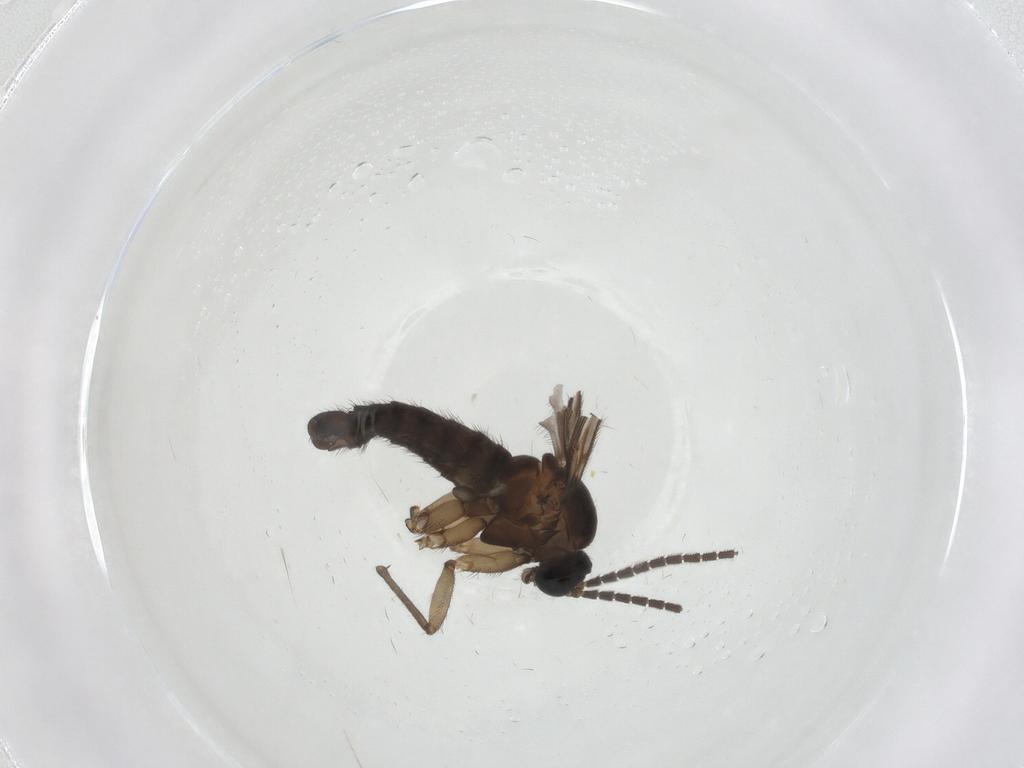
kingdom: Animalia
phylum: Arthropoda
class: Insecta
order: Diptera
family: Sciaridae
